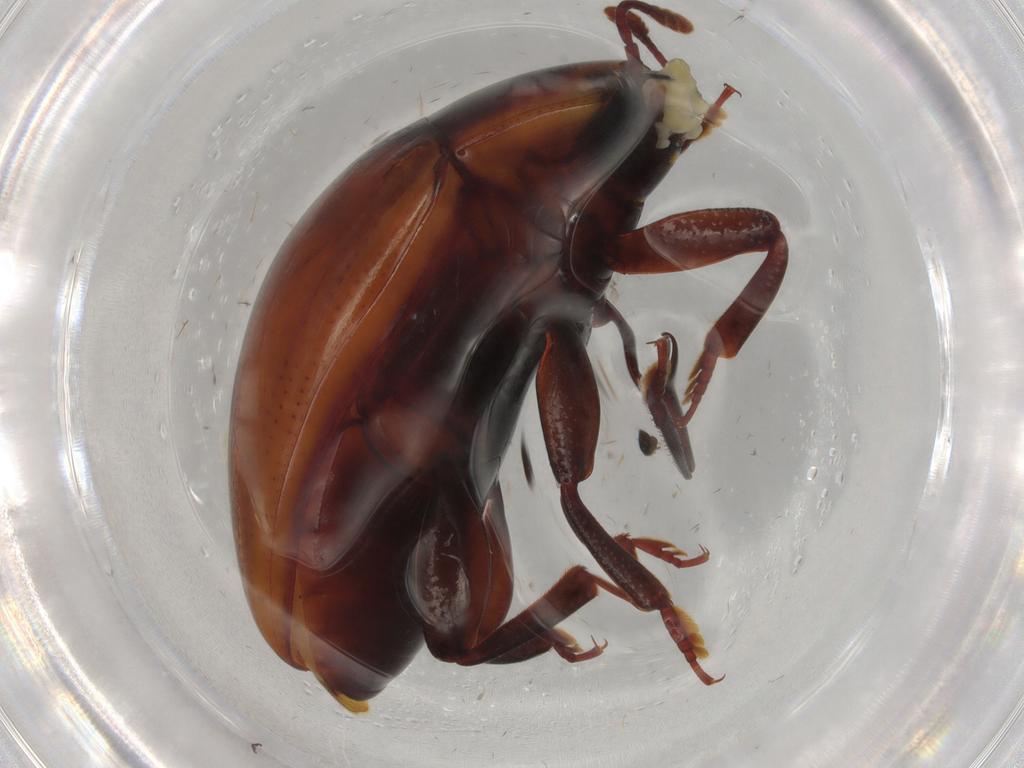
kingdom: Animalia
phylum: Arthropoda
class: Insecta
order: Coleoptera
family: Zopheridae
